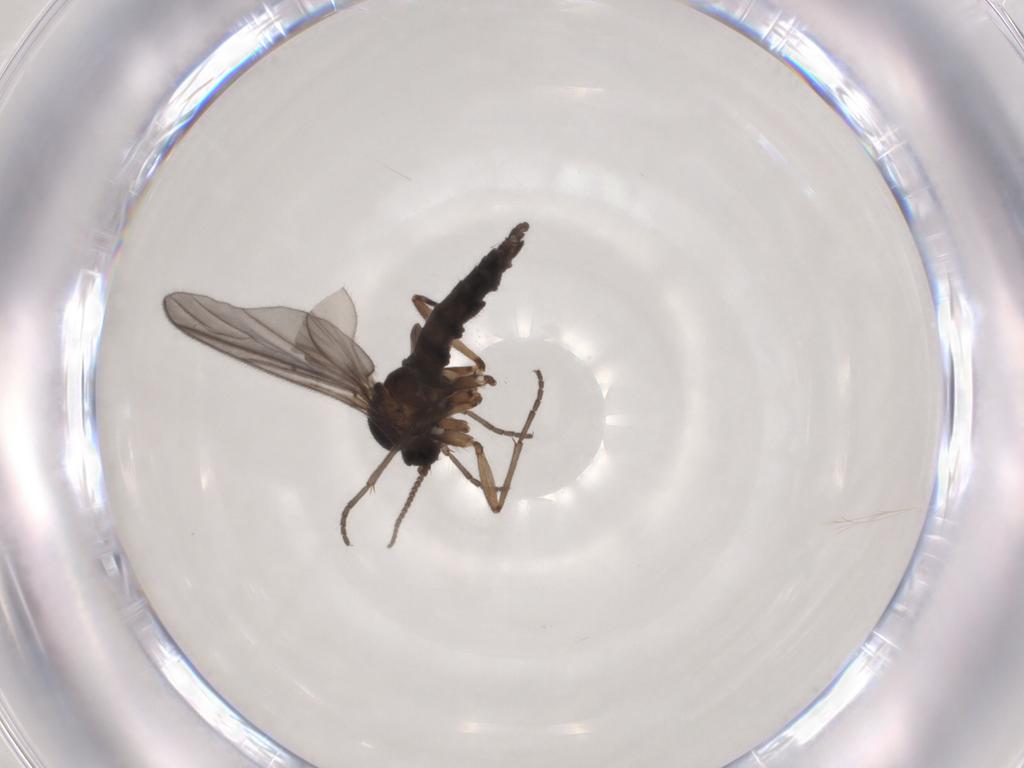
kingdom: Animalia
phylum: Arthropoda
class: Insecta
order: Diptera
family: Sciaridae
